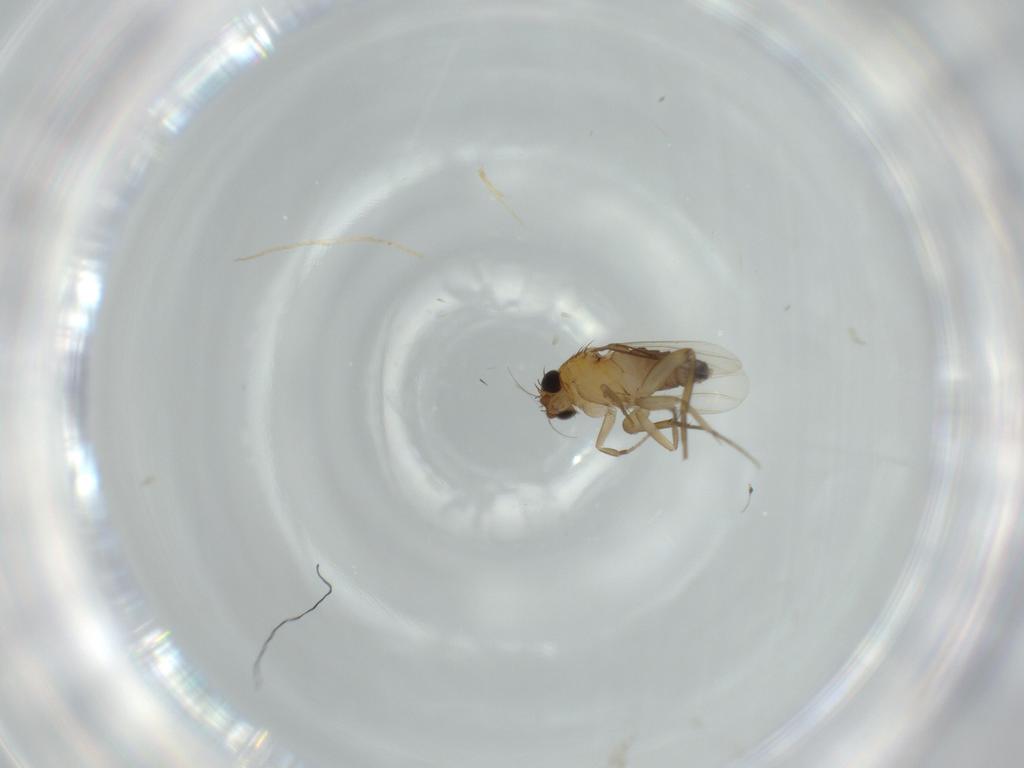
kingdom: Animalia
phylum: Arthropoda
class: Insecta
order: Diptera
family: Phoridae
